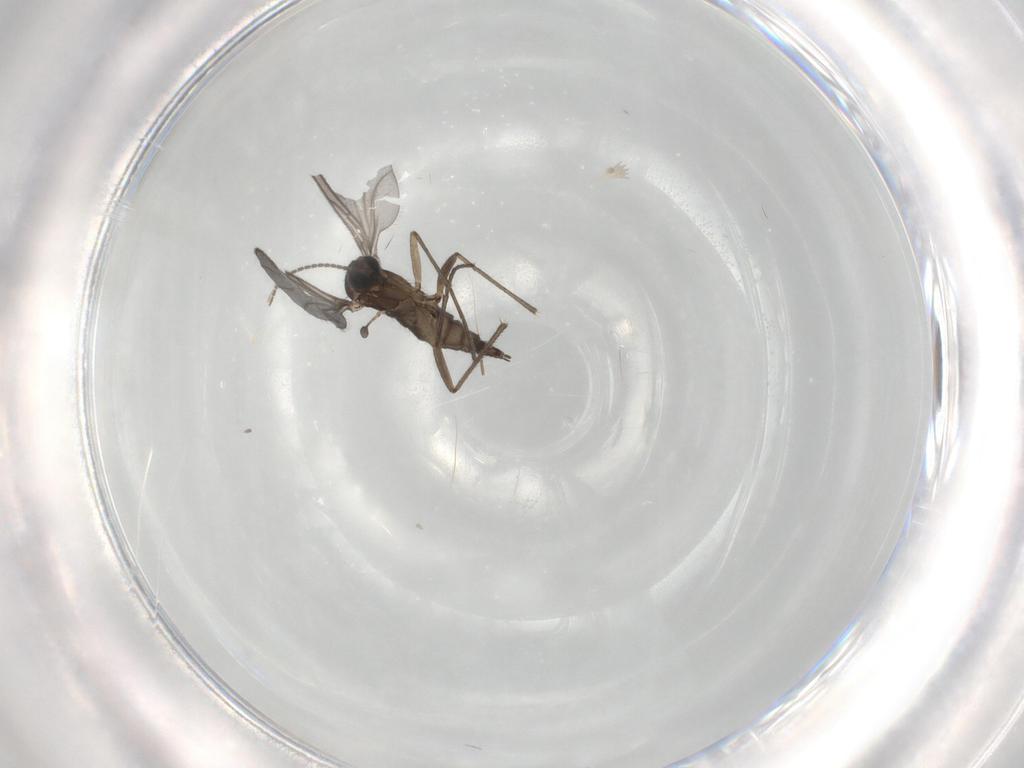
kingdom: Animalia
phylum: Arthropoda
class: Insecta
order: Diptera
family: Sciaridae
